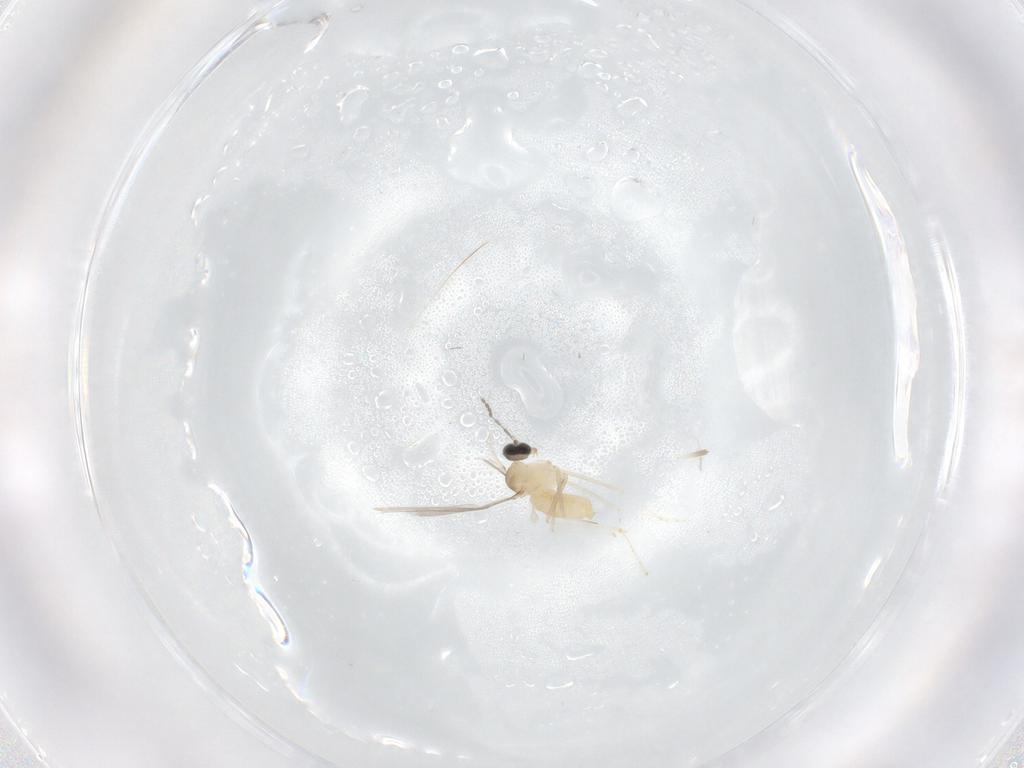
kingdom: Animalia
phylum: Arthropoda
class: Insecta
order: Diptera
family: Cecidomyiidae
